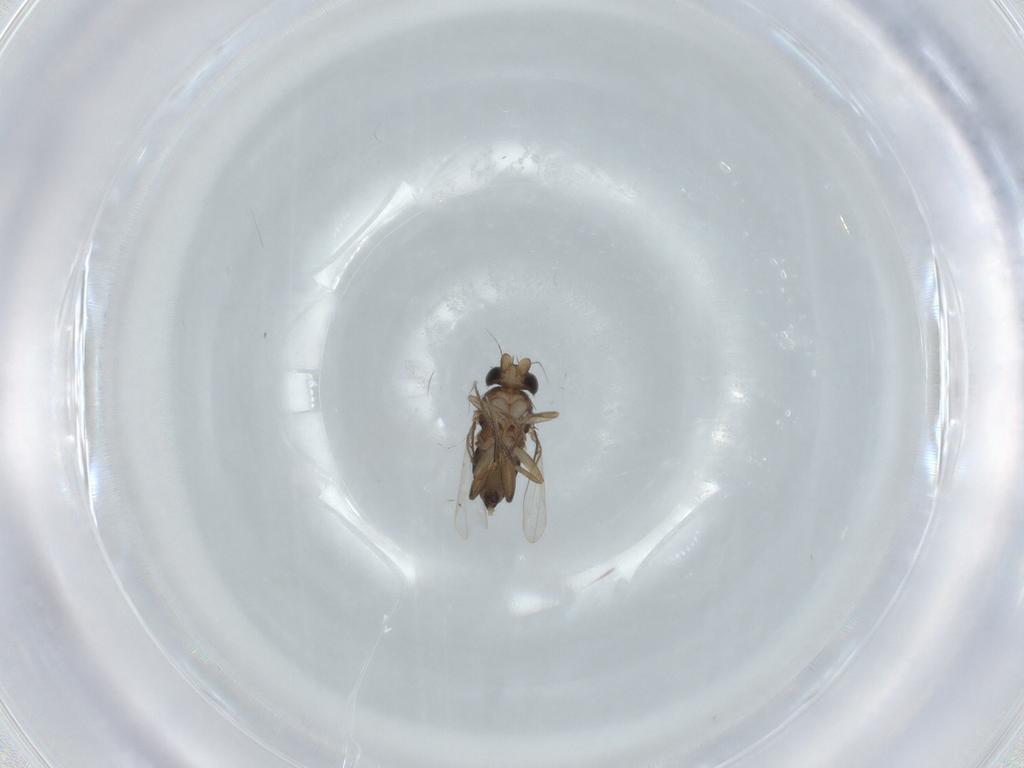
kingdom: Animalia
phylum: Arthropoda
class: Insecta
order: Diptera
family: Phoridae
